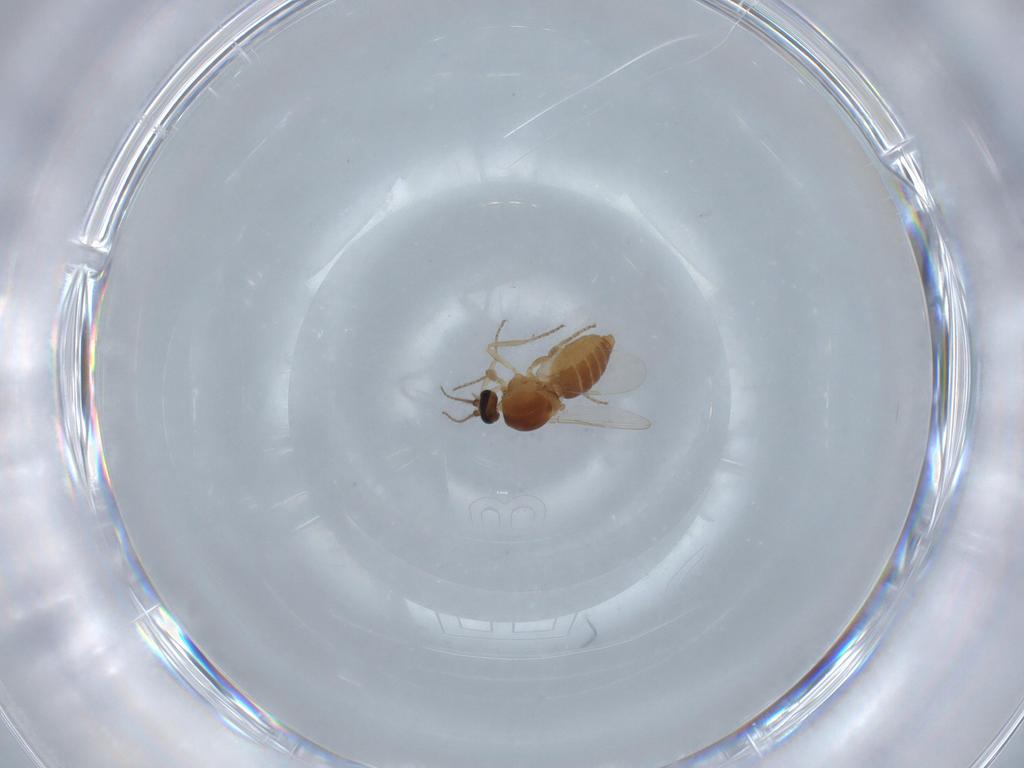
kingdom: Animalia
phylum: Arthropoda
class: Insecta
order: Diptera
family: Ceratopogonidae
